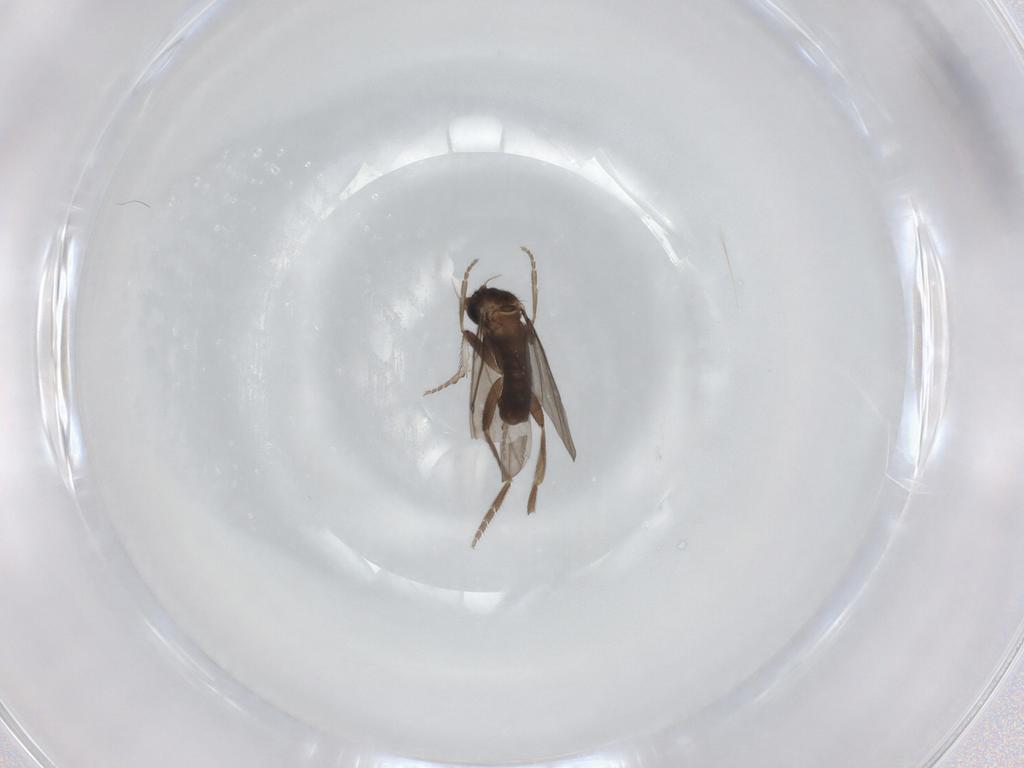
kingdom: Animalia
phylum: Arthropoda
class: Insecta
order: Diptera
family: Phoridae
